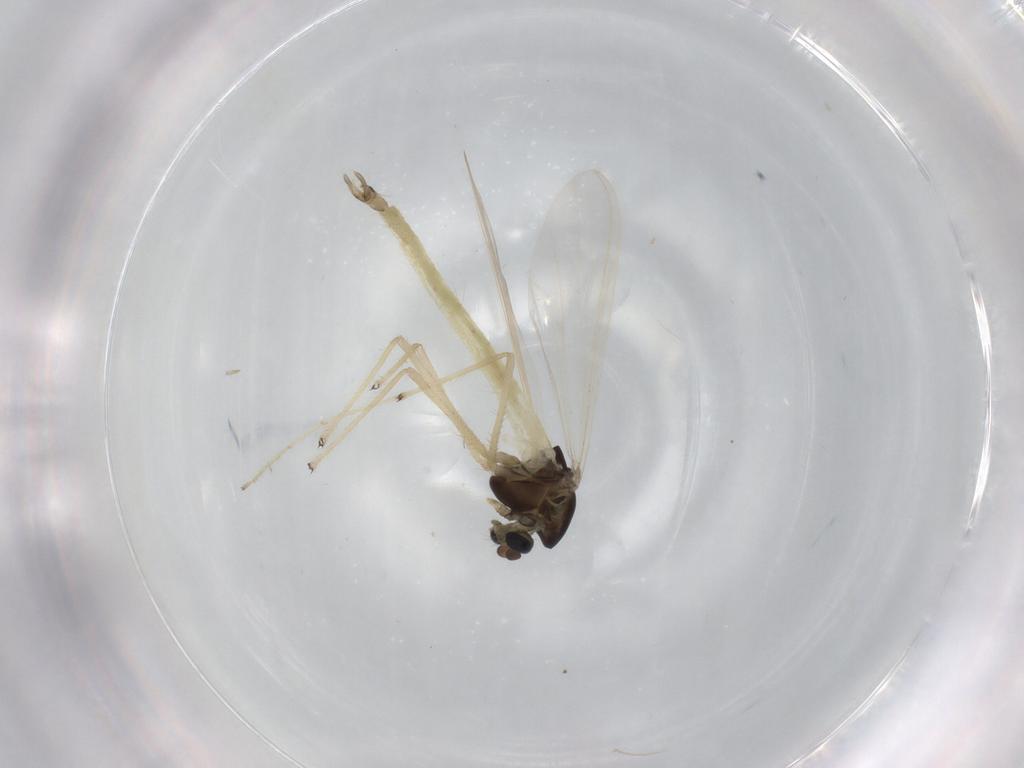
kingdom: Animalia
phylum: Arthropoda
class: Insecta
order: Diptera
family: Chironomidae
